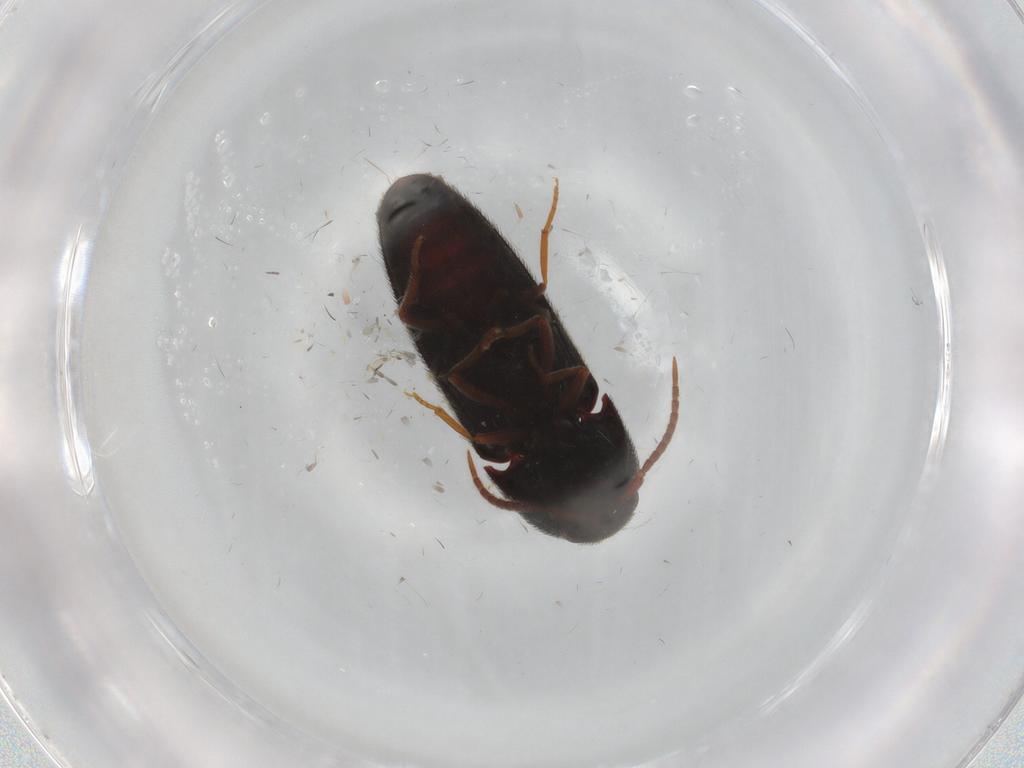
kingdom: Animalia
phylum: Arthropoda
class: Insecta
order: Coleoptera
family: Eucnemidae
